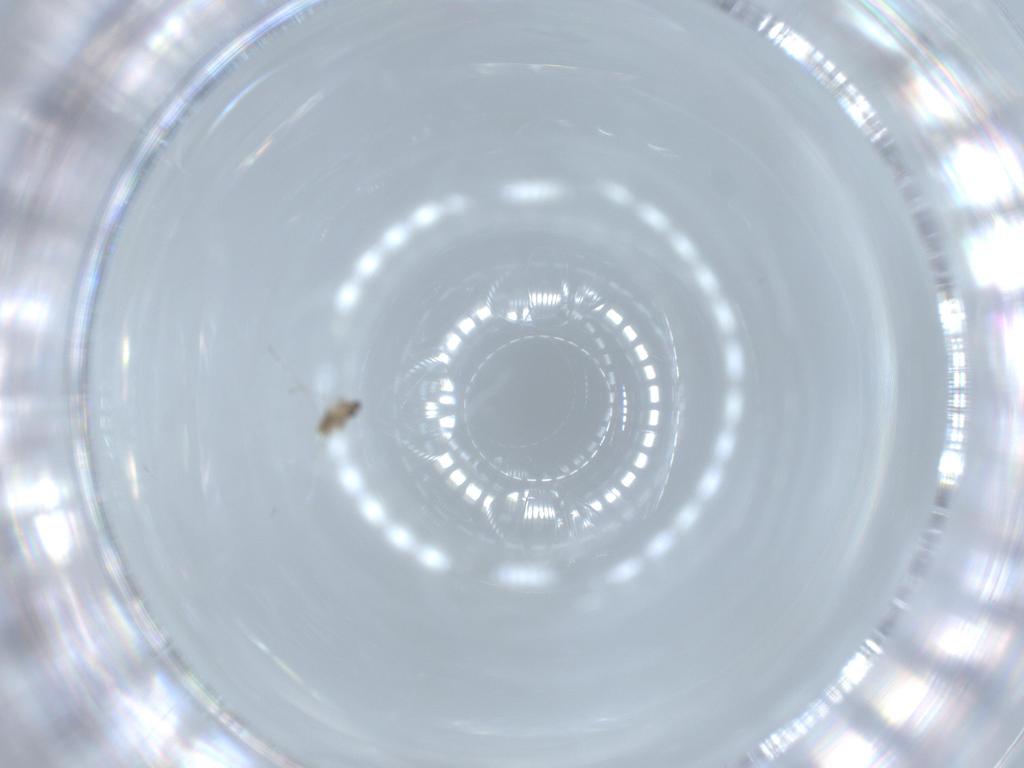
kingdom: Animalia
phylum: Arthropoda
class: Insecta
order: Diptera
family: Cecidomyiidae
